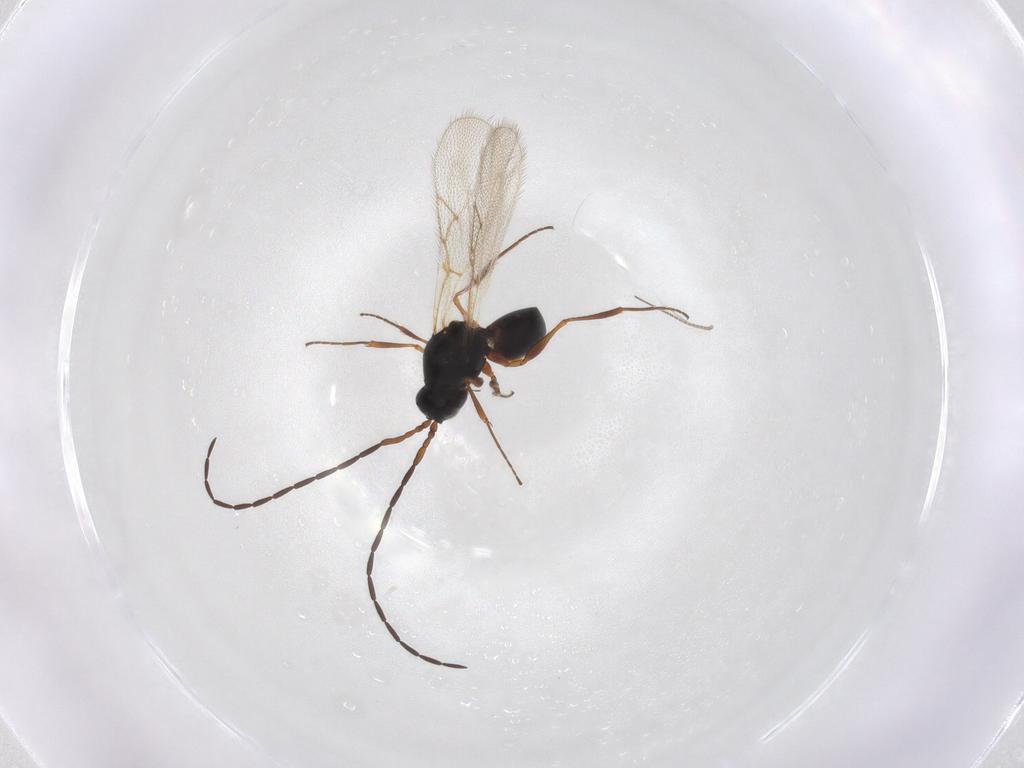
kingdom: Animalia
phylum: Arthropoda
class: Insecta
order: Hymenoptera
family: Figitidae
